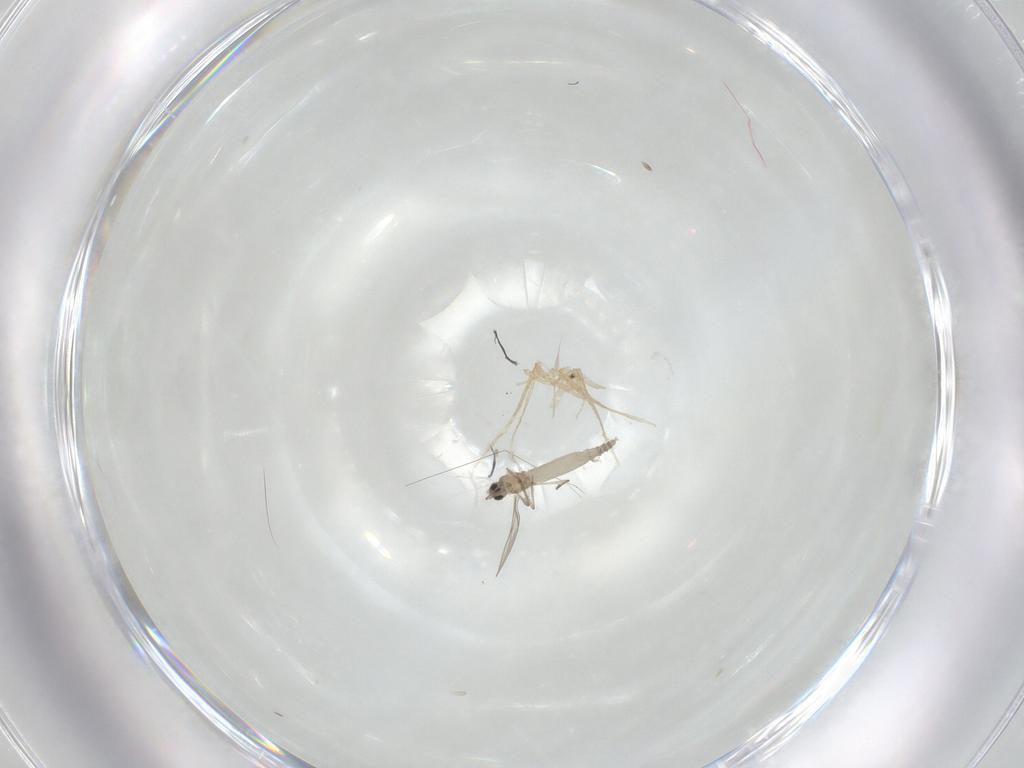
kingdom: Animalia
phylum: Arthropoda
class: Insecta
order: Diptera
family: Cecidomyiidae
